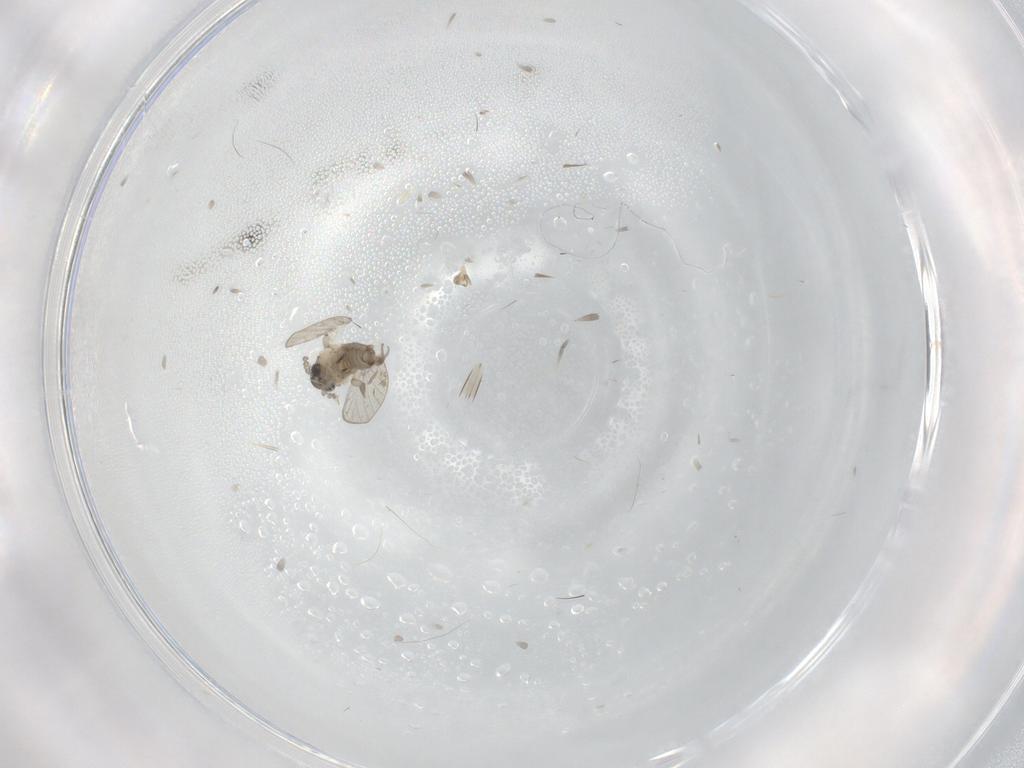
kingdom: Animalia
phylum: Arthropoda
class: Insecta
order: Diptera
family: Psychodidae
